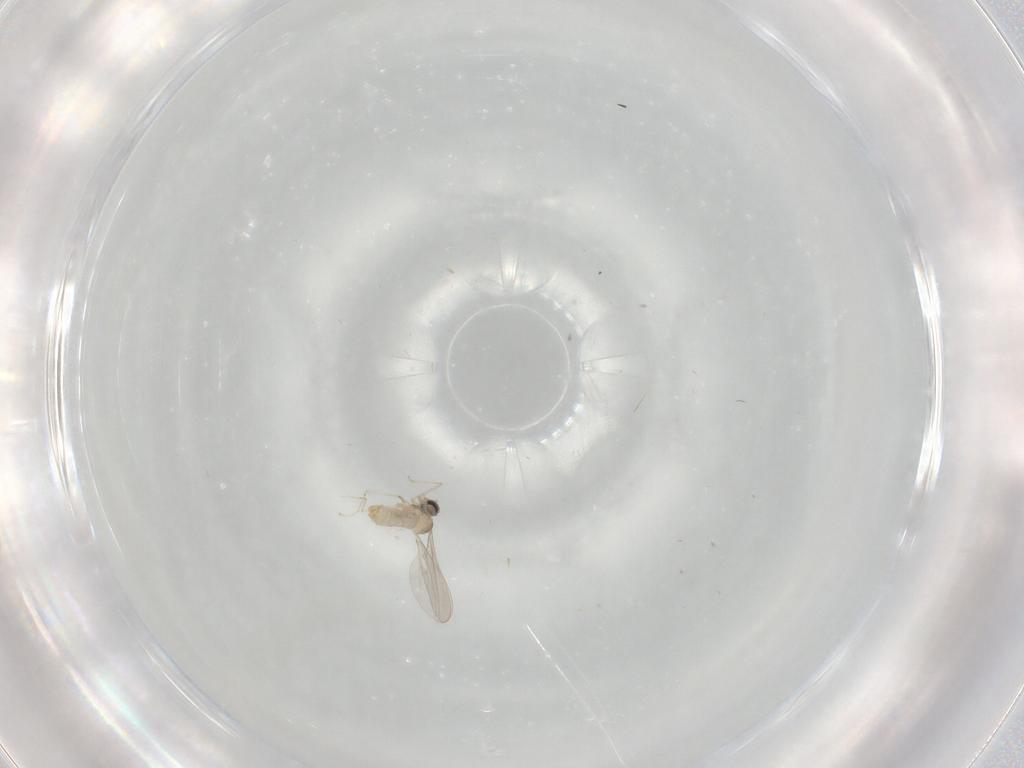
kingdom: Animalia
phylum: Arthropoda
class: Insecta
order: Diptera
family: Cecidomyiidae
